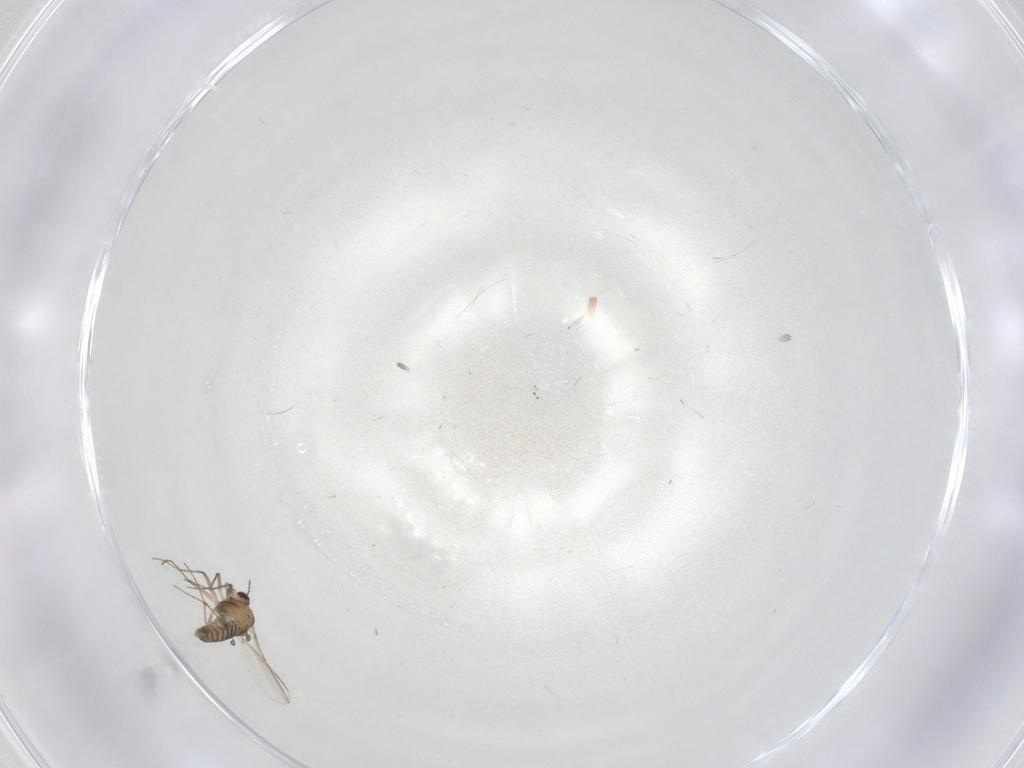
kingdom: Animalia
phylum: Arthropoda
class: Insecta
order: Diptera
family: Chironomidae
